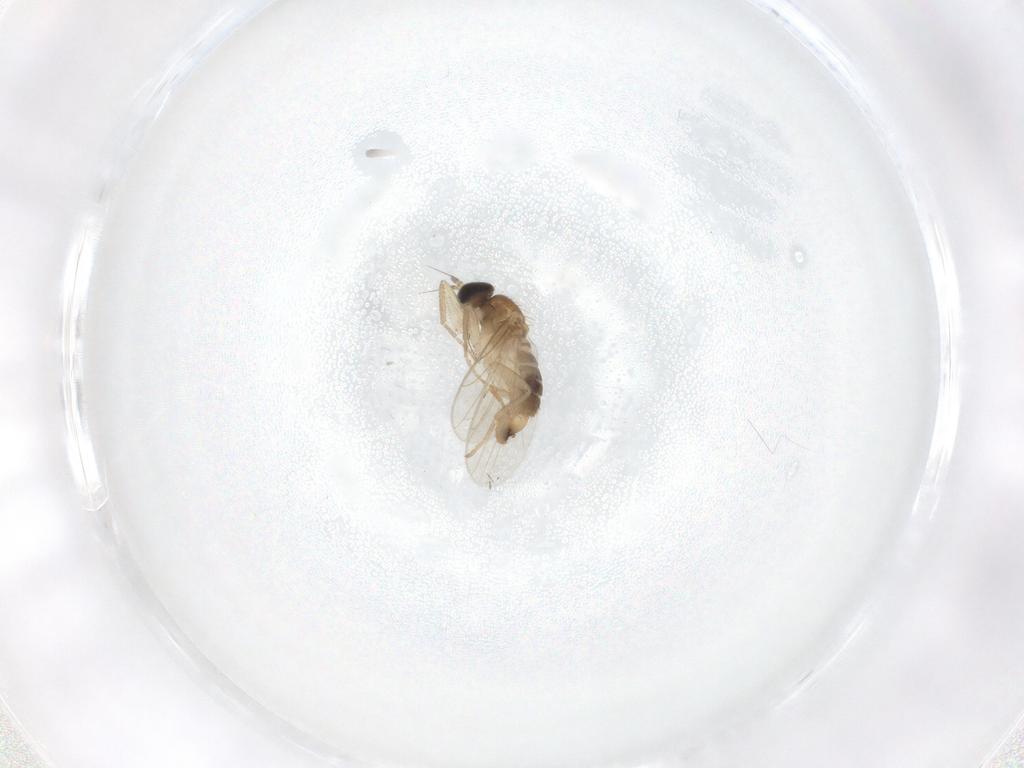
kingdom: Animalia
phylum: Arthropoda
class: Insecta
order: Diptera
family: Hybotidae
